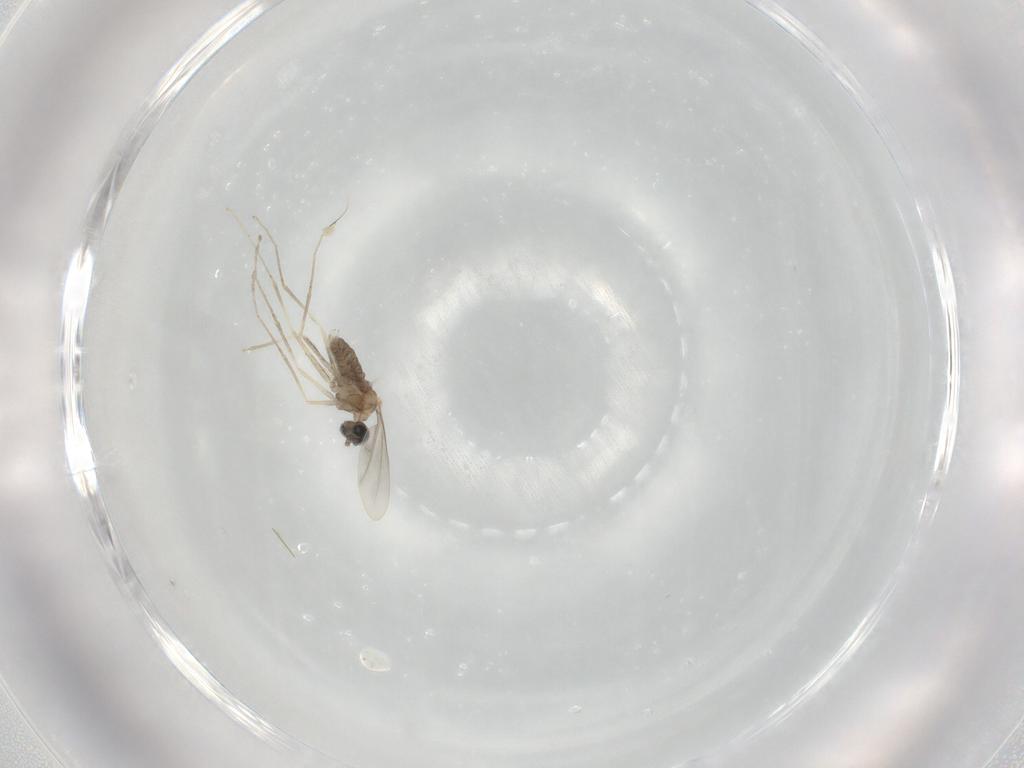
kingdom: Animalia
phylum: Arthropoda
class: Insecta
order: Diptera
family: Cecidomyiidae
